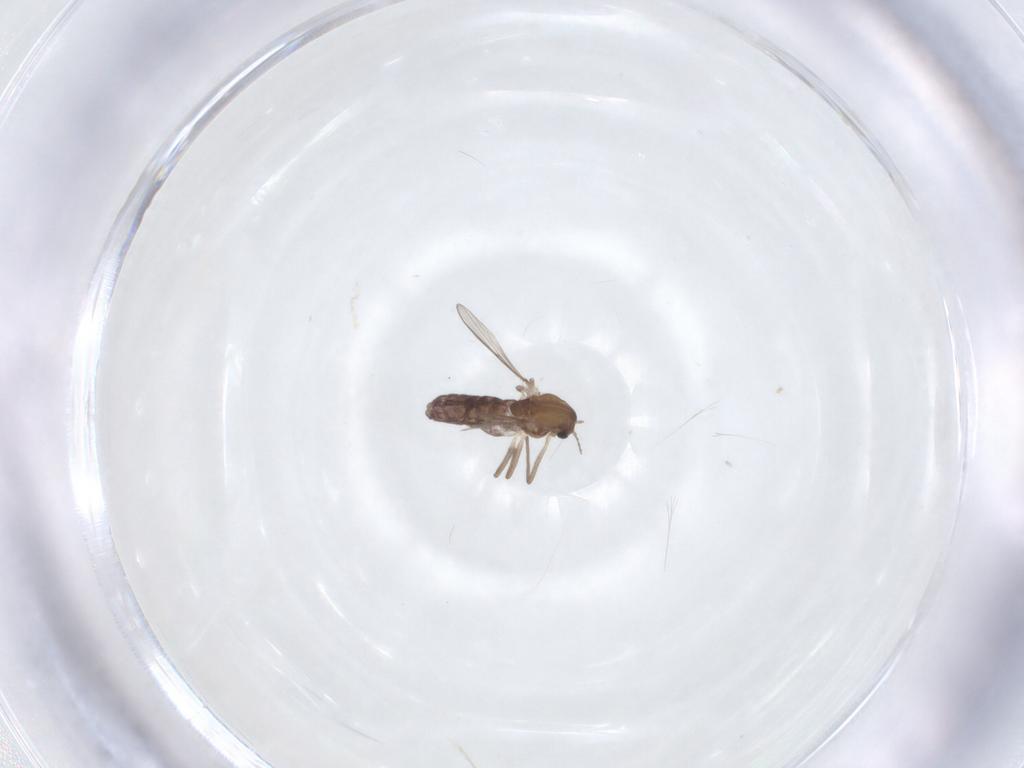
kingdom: Animalia
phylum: Arthropoda
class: Insecta
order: Diptera
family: Chironomidae
